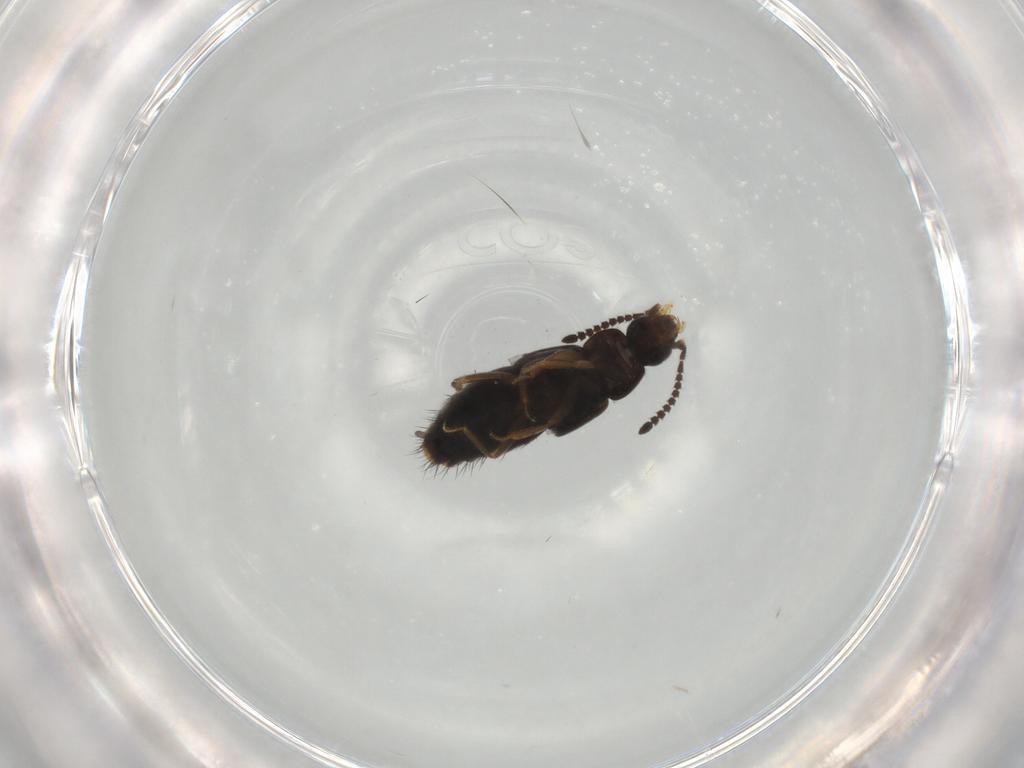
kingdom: Animalia
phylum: Arthropoda
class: Insecta
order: Coleoptera
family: Staphylinidae
